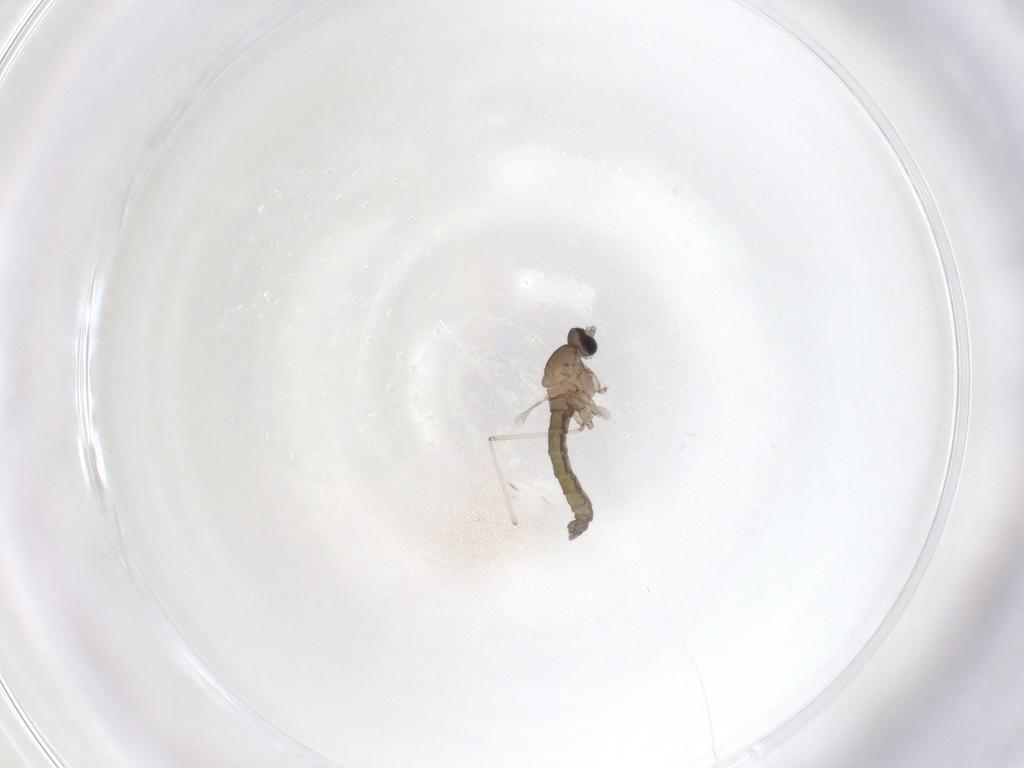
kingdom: Animalia
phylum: Arthropoda
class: Insecta
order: Diptera
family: Cecidomyiidae
